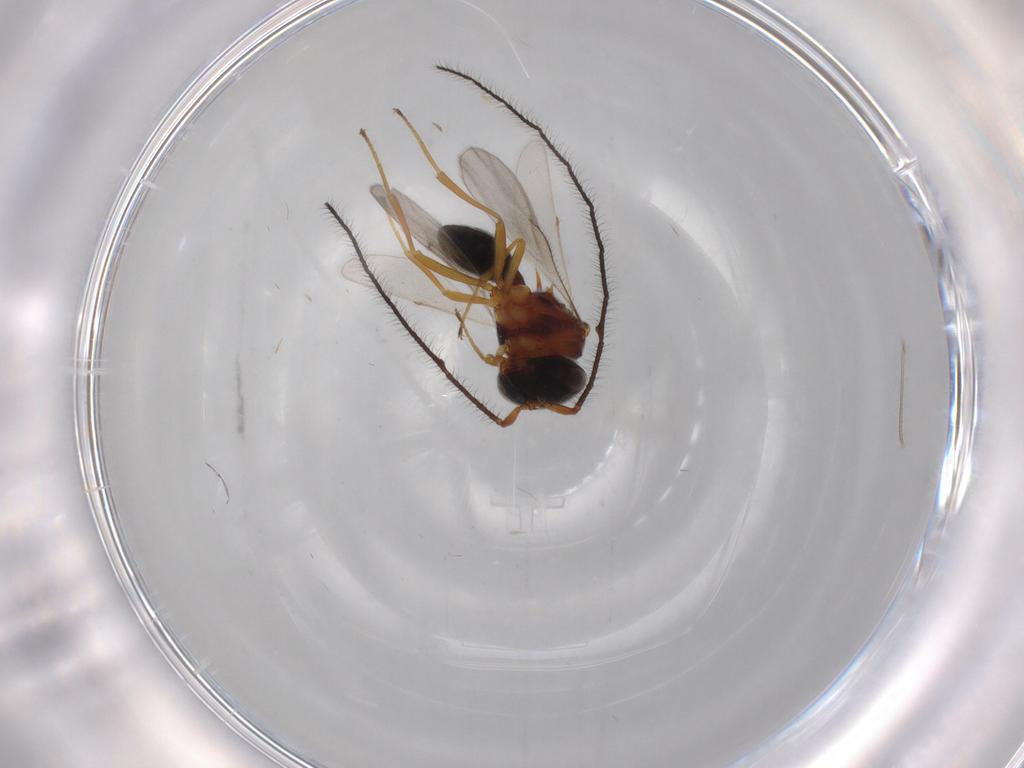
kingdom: Animalia
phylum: Arthropoda
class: Insecta
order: Hymenoptera
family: Scelionidae
